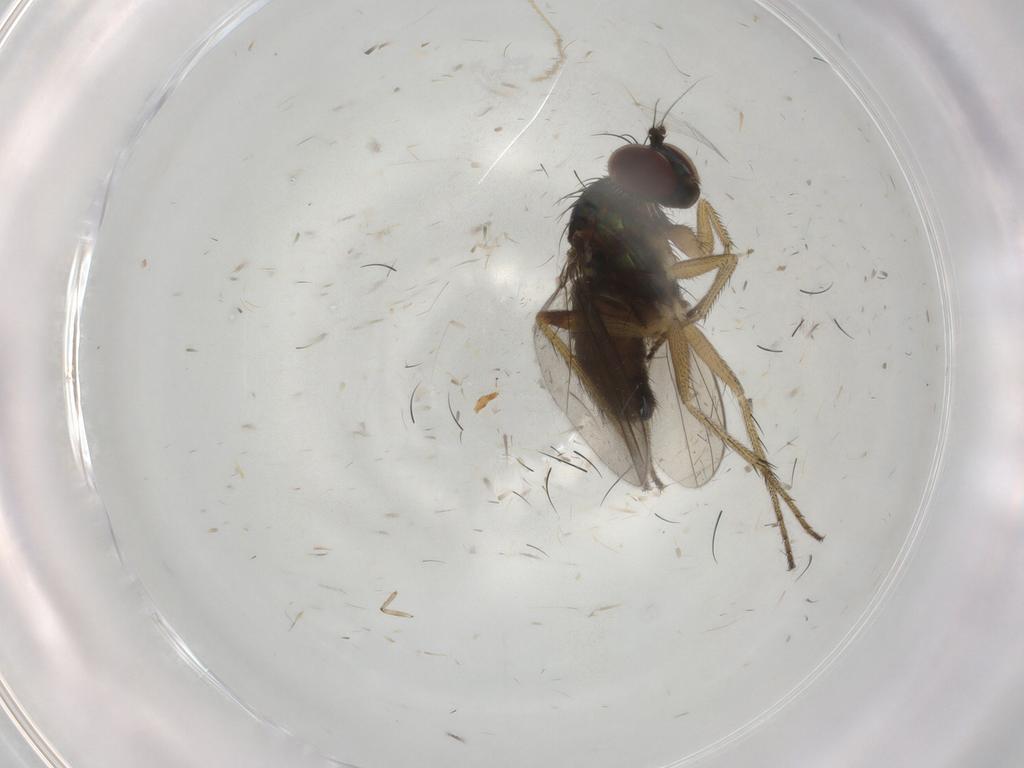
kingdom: Animalia
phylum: Arthropoda
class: Insecta
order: Diptera
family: Dolichopodidae
